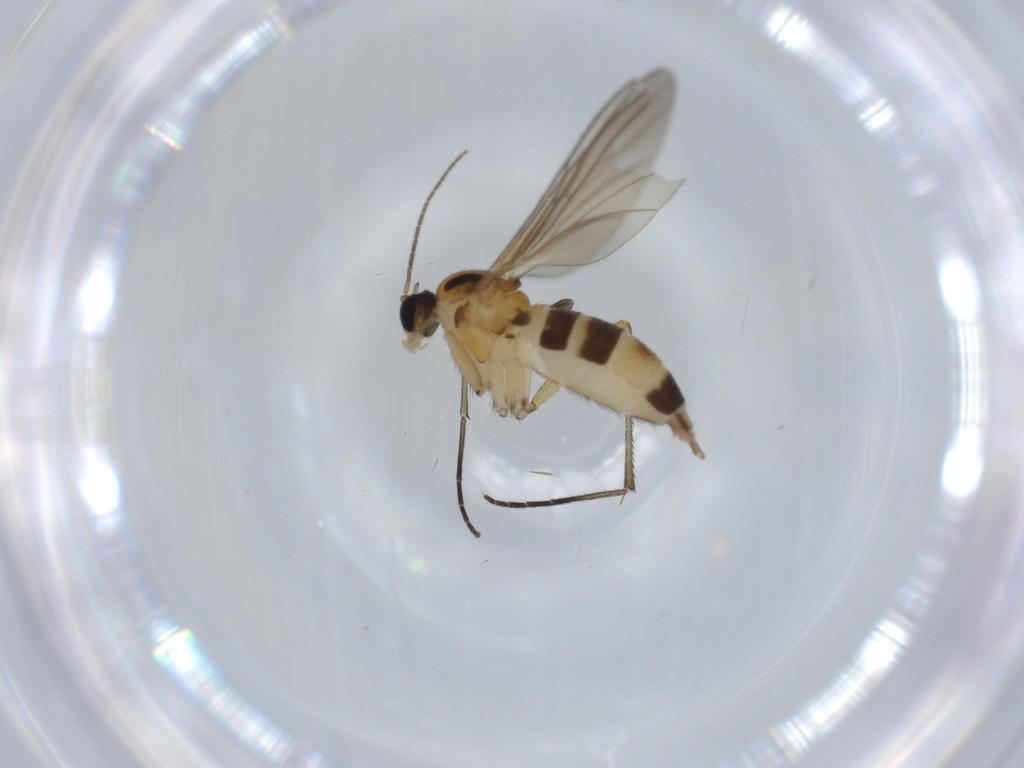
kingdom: Animalia
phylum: Arthropoda
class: Insecta
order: Diptera
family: Sciaridae
